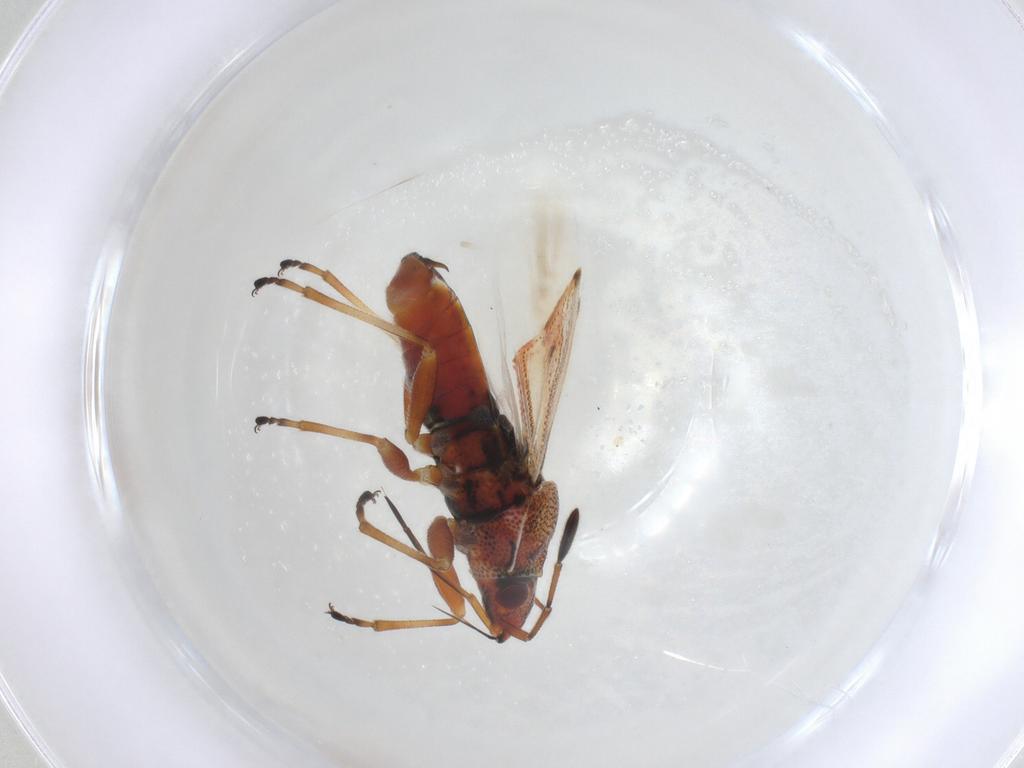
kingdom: Animalia
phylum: Arthropoda
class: Insecta
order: Hemiptera
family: Lygaeidae
